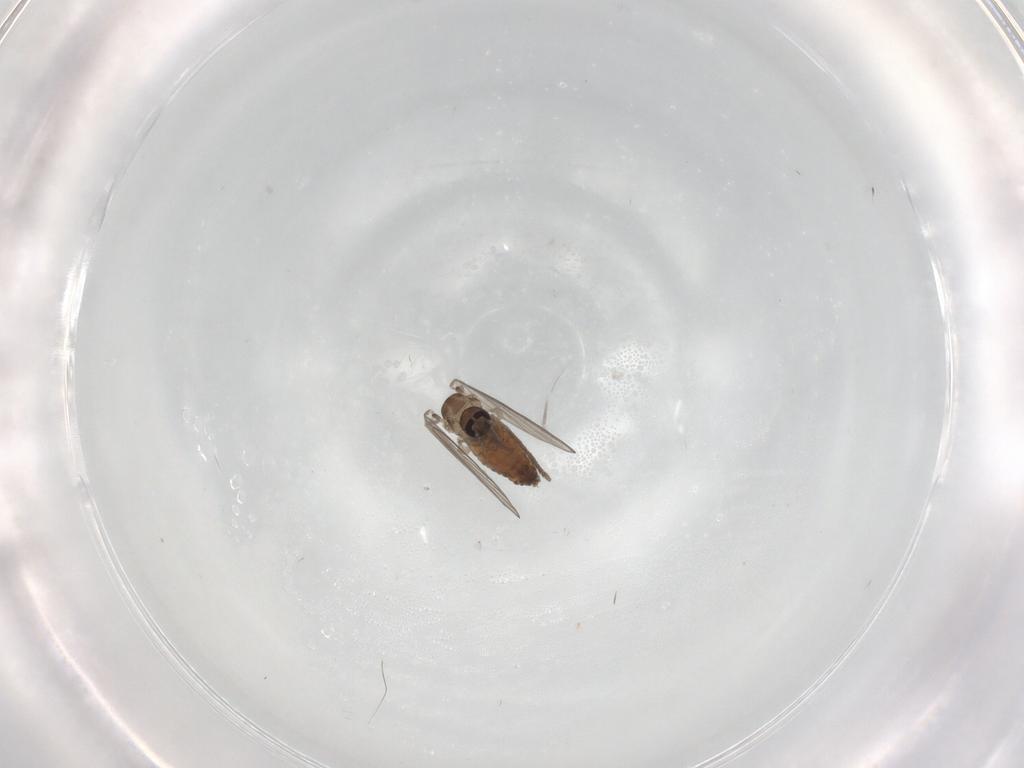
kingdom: Animalia
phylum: Arthropoda
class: Insecta
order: Diptera
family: Psychodidae
